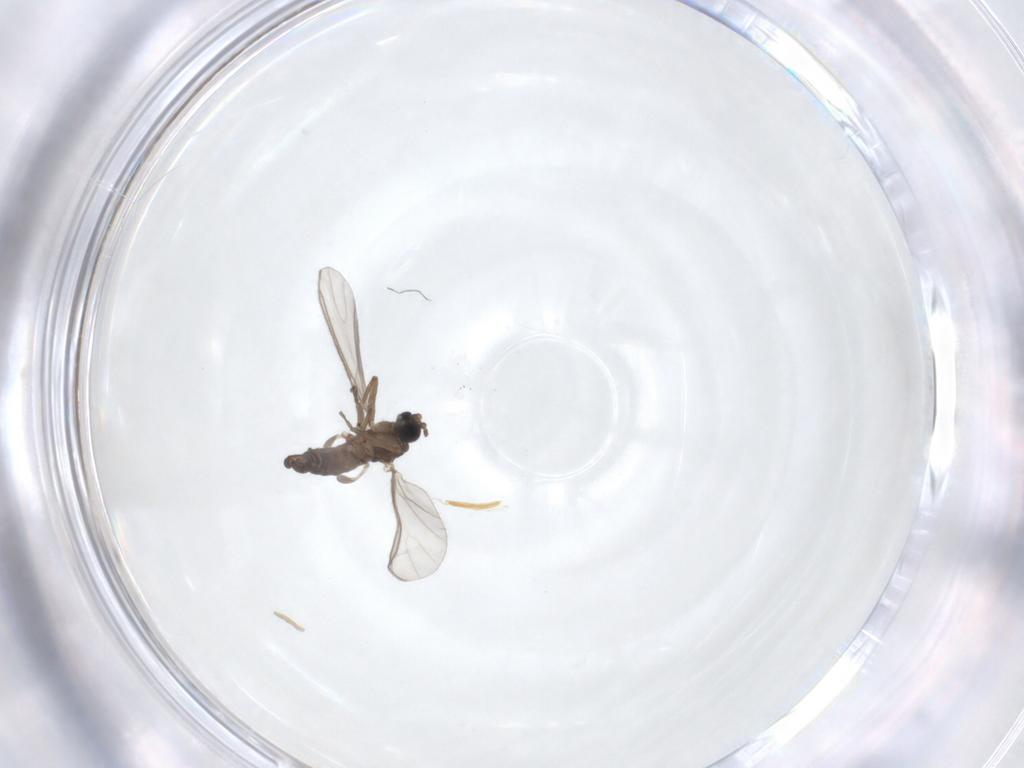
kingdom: Animalia
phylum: Arthropoda
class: Insecta
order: Diptera
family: Sciaridae
